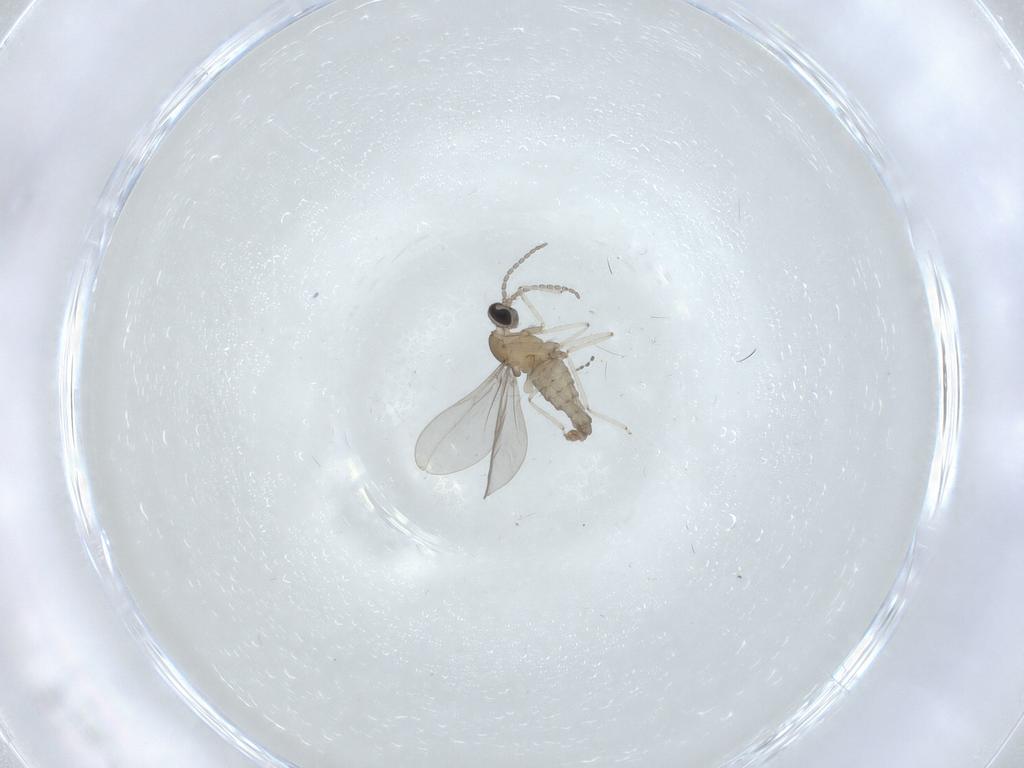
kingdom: Animalia
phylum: Arthropoda
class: Insecta
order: Diptera
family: Cecidomyiidae
